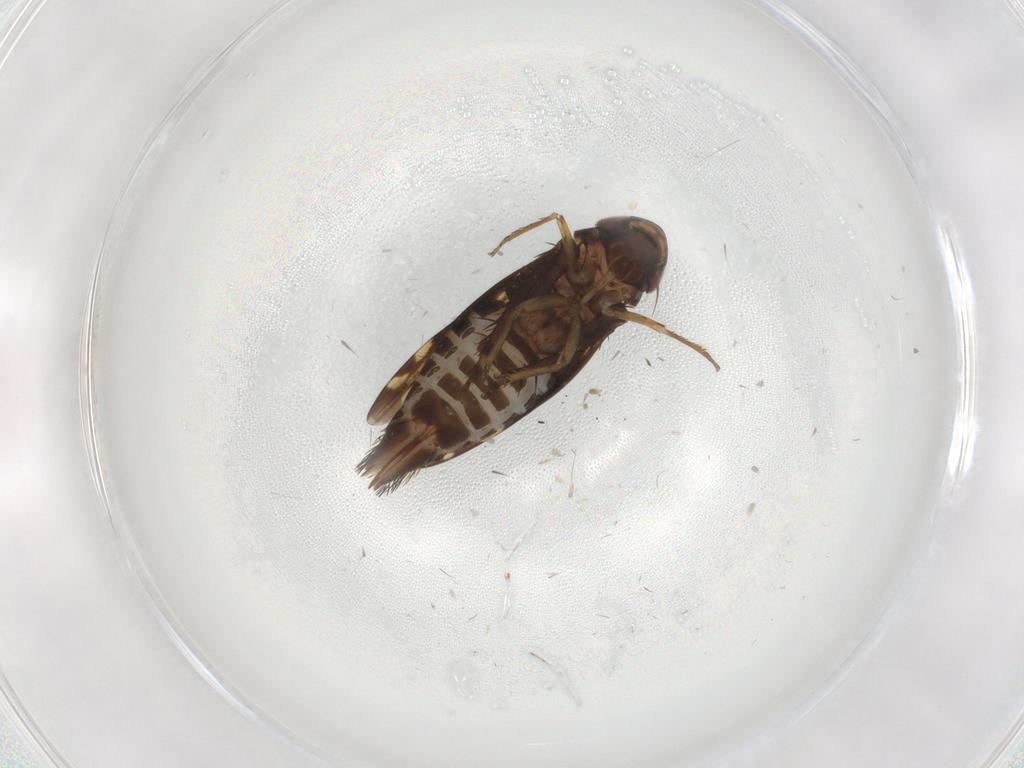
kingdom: Animalia
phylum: Arthropoda
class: Insecta
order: Hemiptera
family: Cicadellidae
